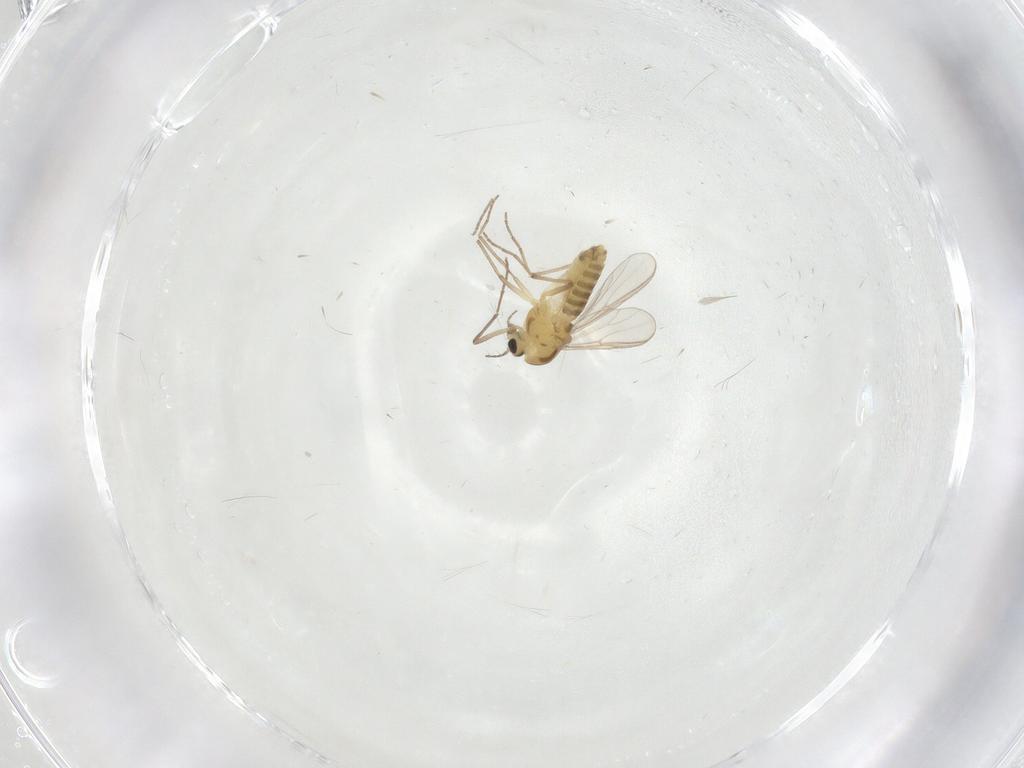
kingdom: Animalia
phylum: Arthropoda
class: Insecta
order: Diptera
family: Chironomidae
